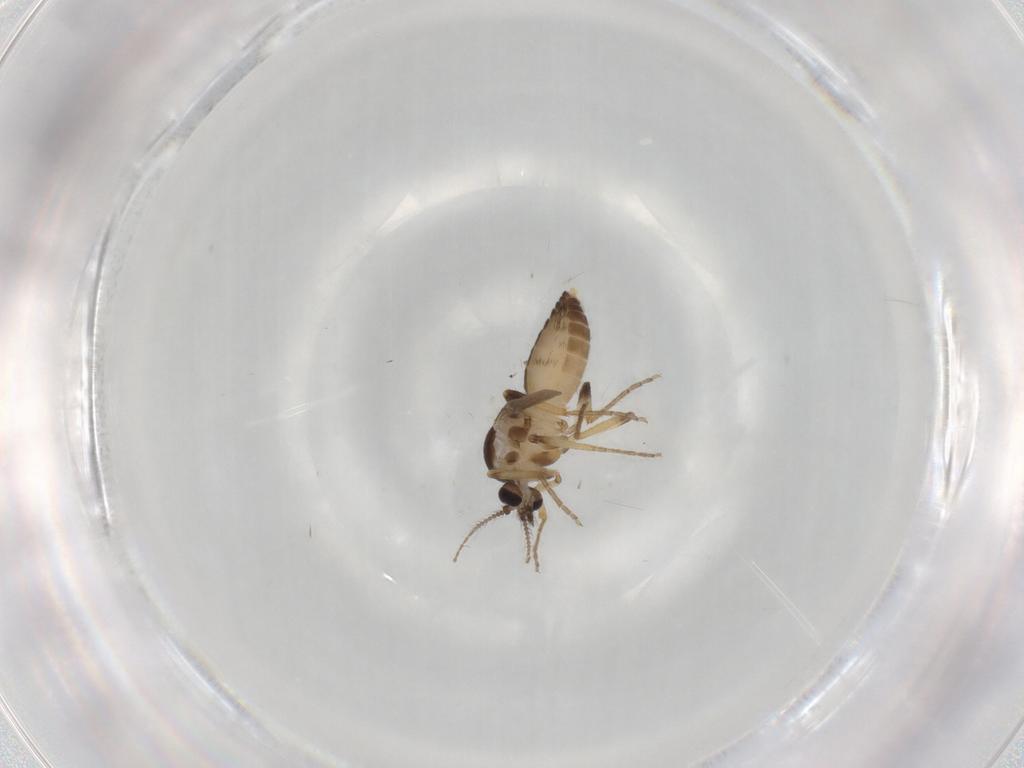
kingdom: Animalia
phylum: Arthropoda
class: Insecta
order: Diptera
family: Ceratopogonidae
